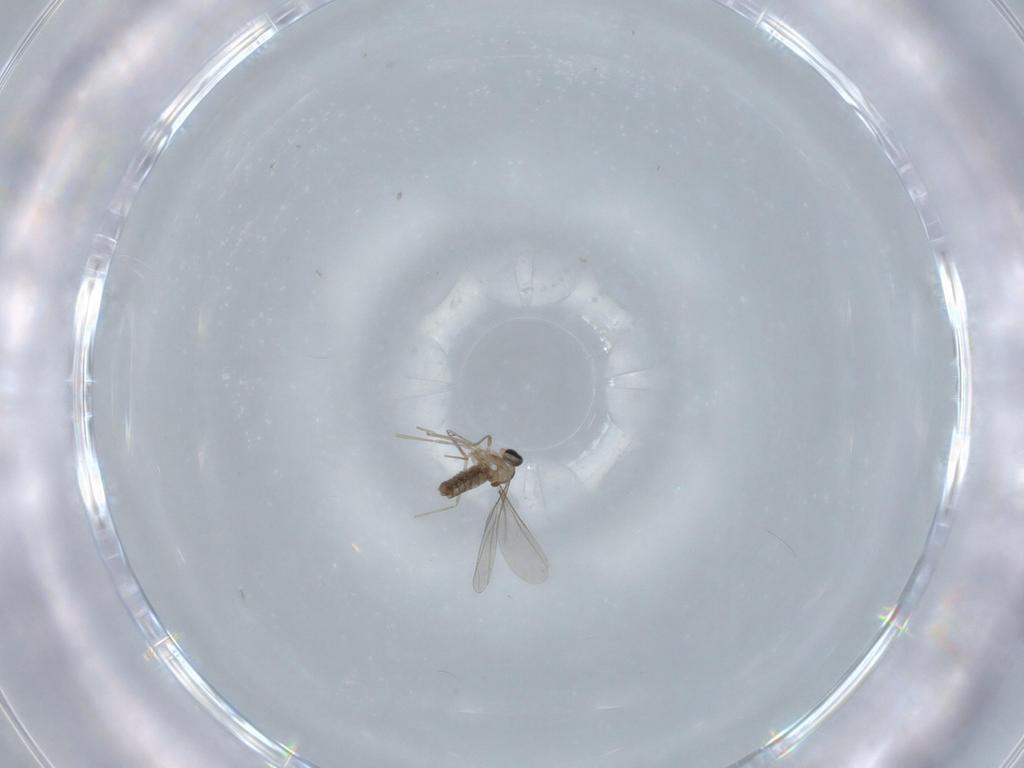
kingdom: Animalia
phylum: Arthropoda
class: Insecta
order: Diptera
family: Cecidomyiidae
